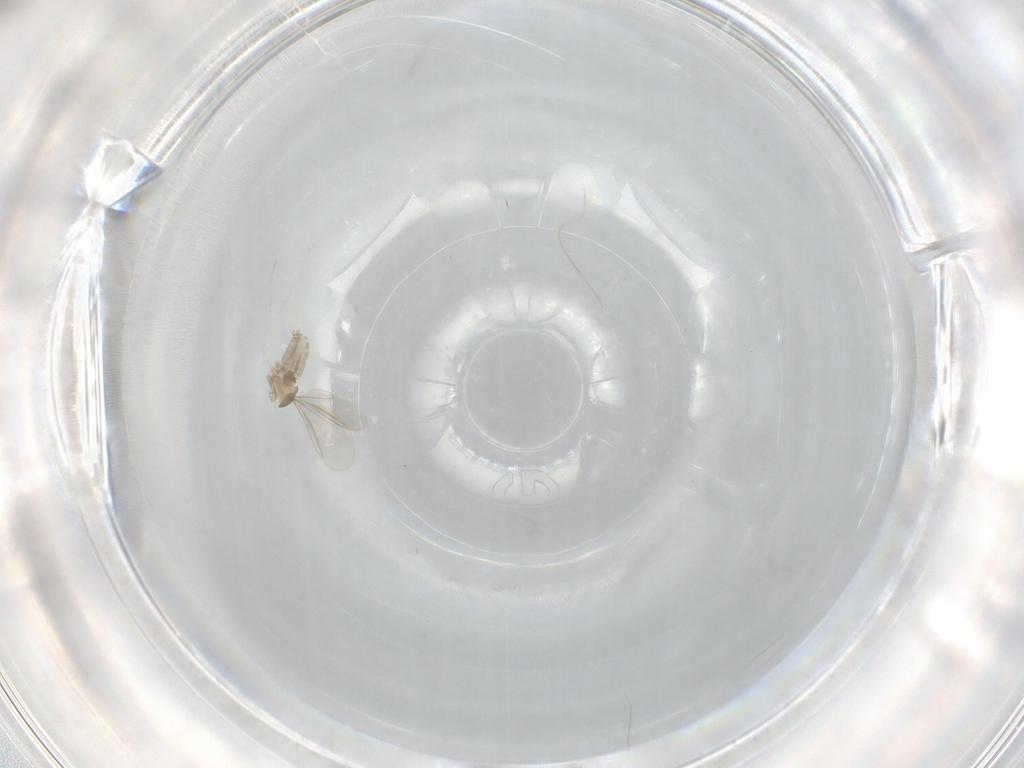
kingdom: Animalia
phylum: Arthropoda
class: Insecta
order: Diptera
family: Cecidomyiidae
